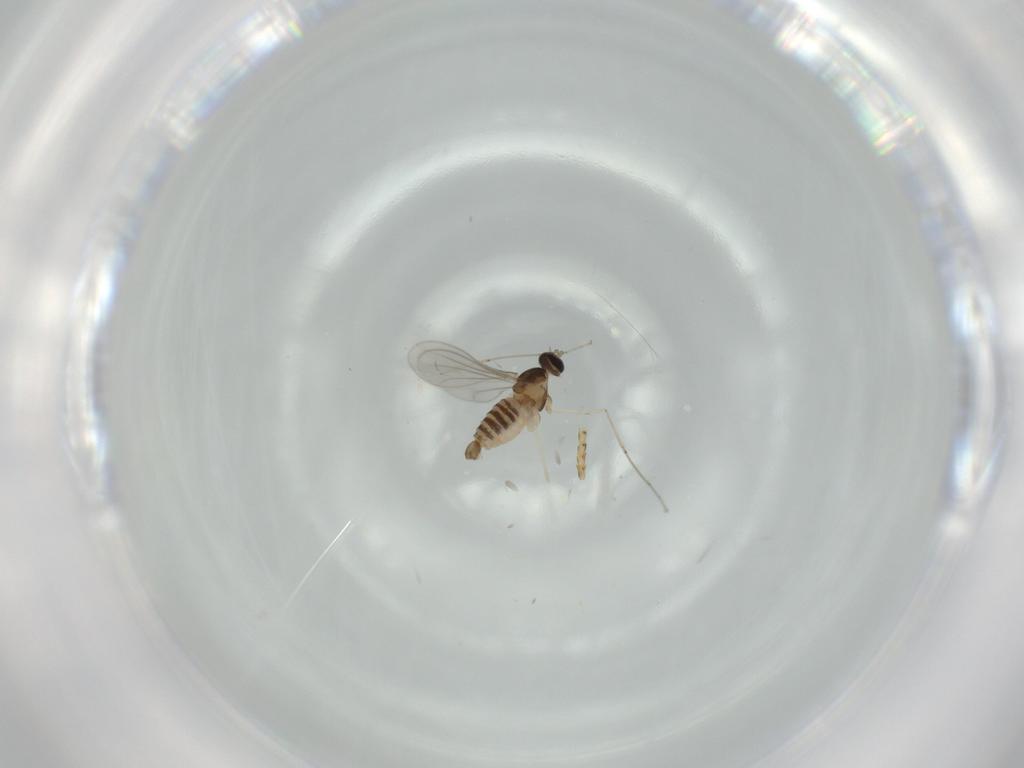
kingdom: Animalia
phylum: Arthropoda
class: Insecta
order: Diptera
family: Cecidomyiidae
